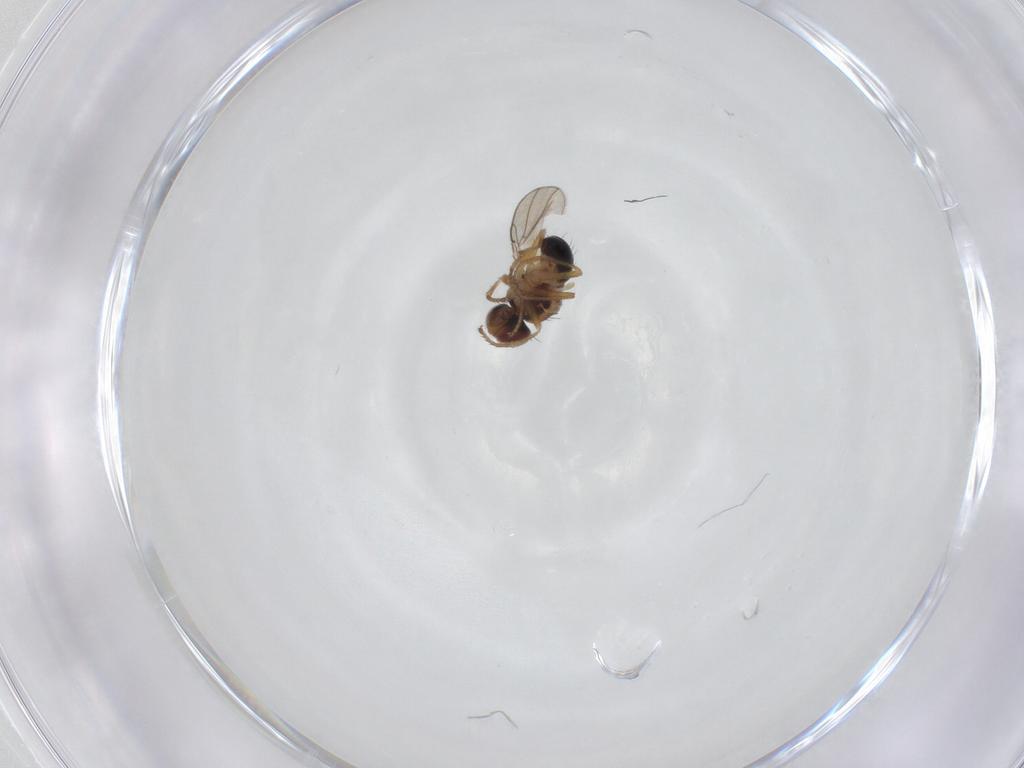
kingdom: Animalia
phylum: Arthropoda
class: Insecta
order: Diptera
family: Ephydridae
